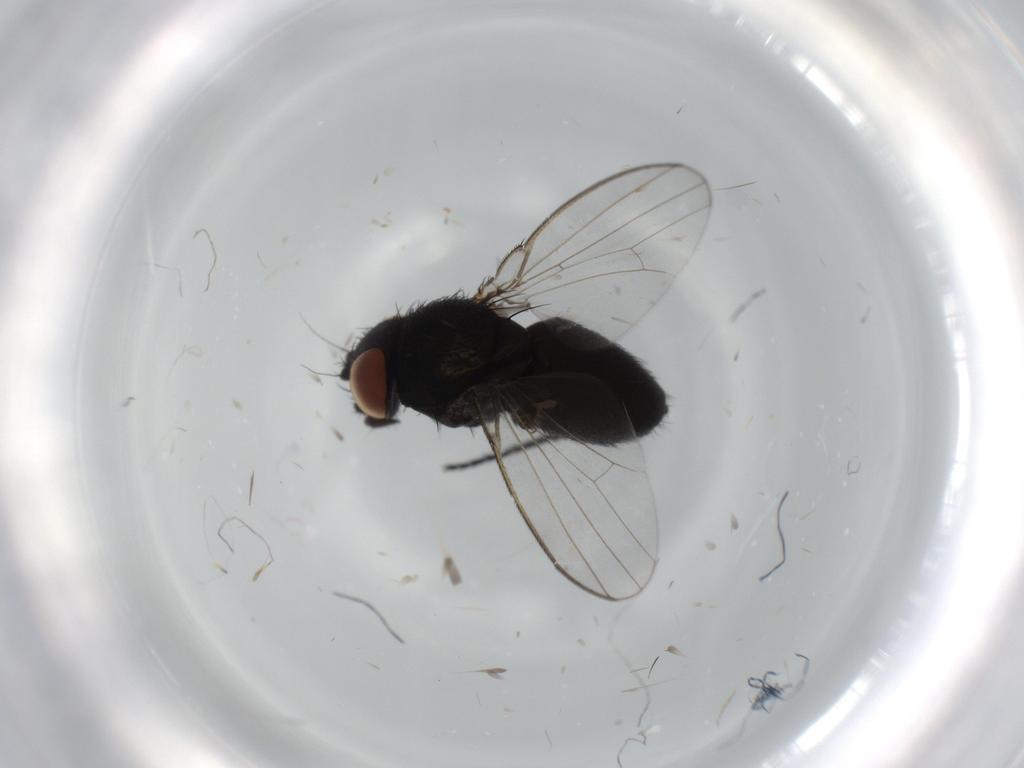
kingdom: Animalia
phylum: Arthropoda
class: Insecta
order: Diptera
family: Milichiidae
